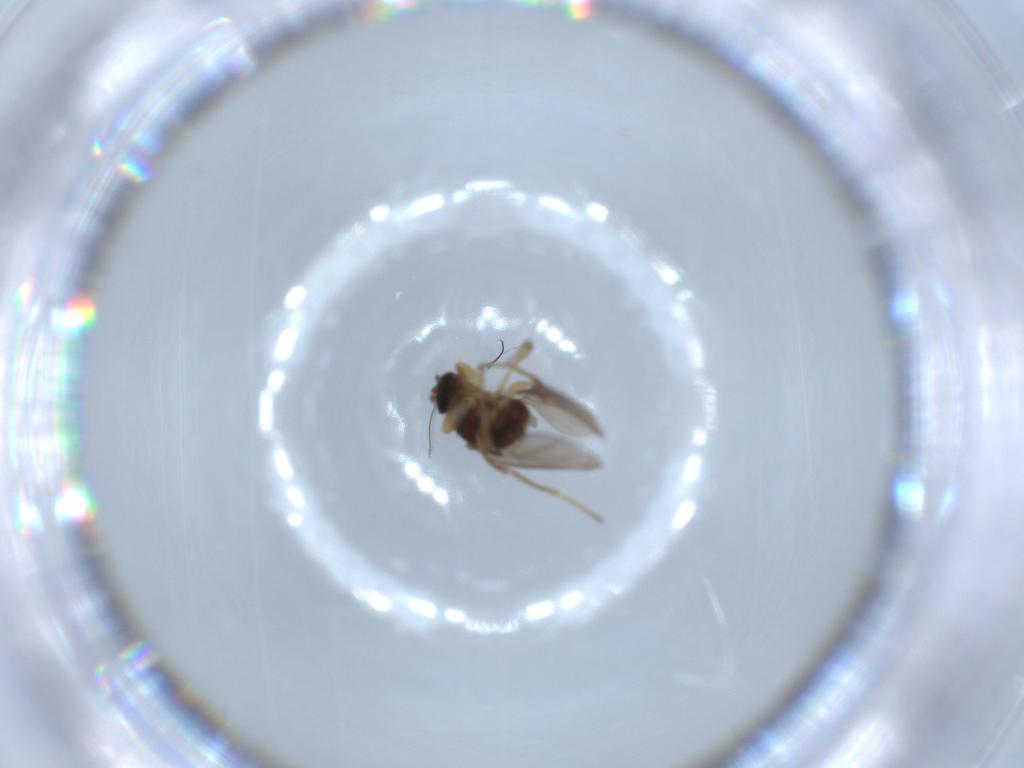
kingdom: Animalia
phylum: Arthropoda
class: Insecta
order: Diptera
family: Hybotidae
